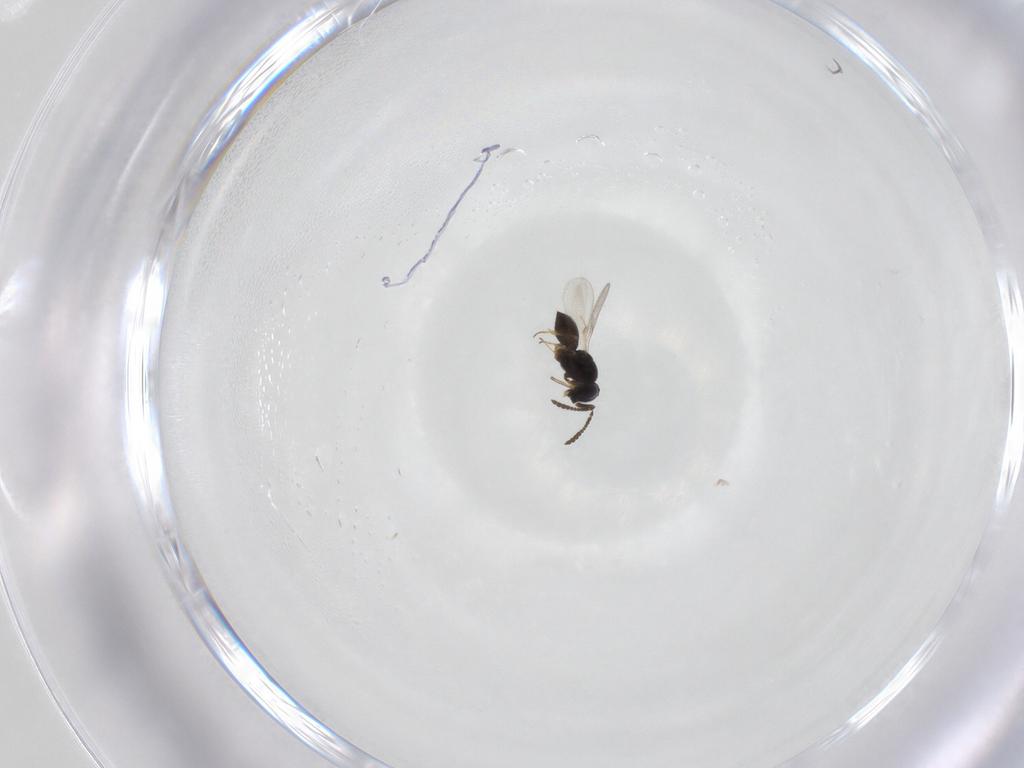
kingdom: Animalia
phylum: Arthropoda
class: Insecta
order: Hymenoptera
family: Scelionidae
